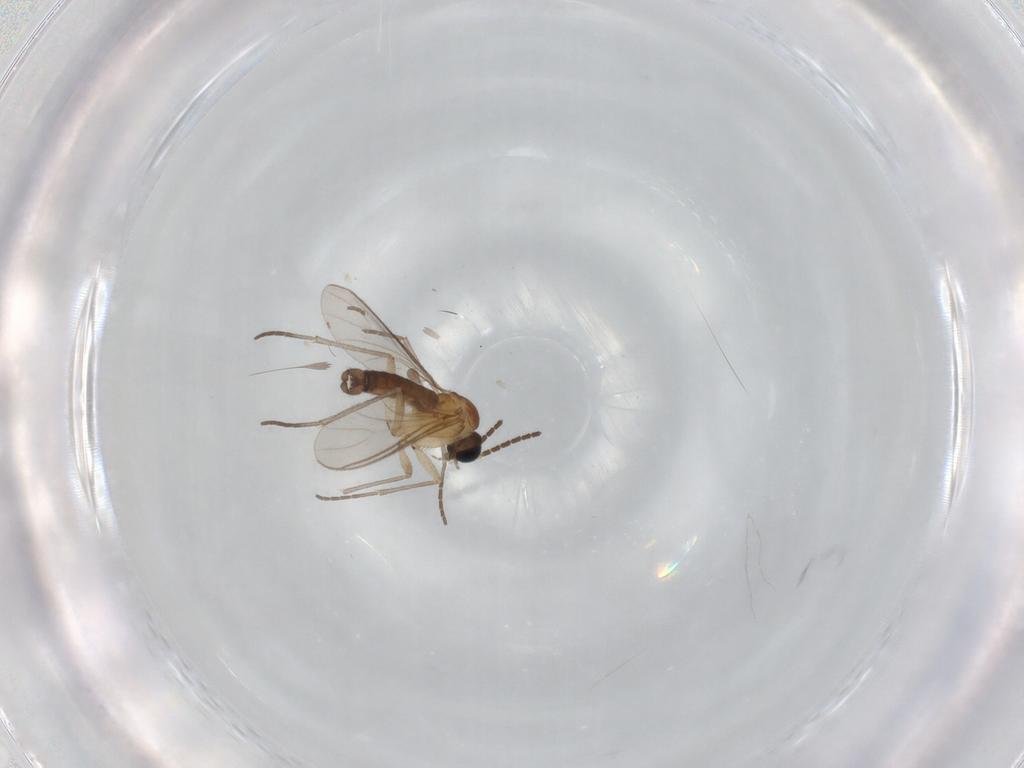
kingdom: Animalia
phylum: Arthropoda
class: Insecta
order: Diptera
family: Sciaridae
